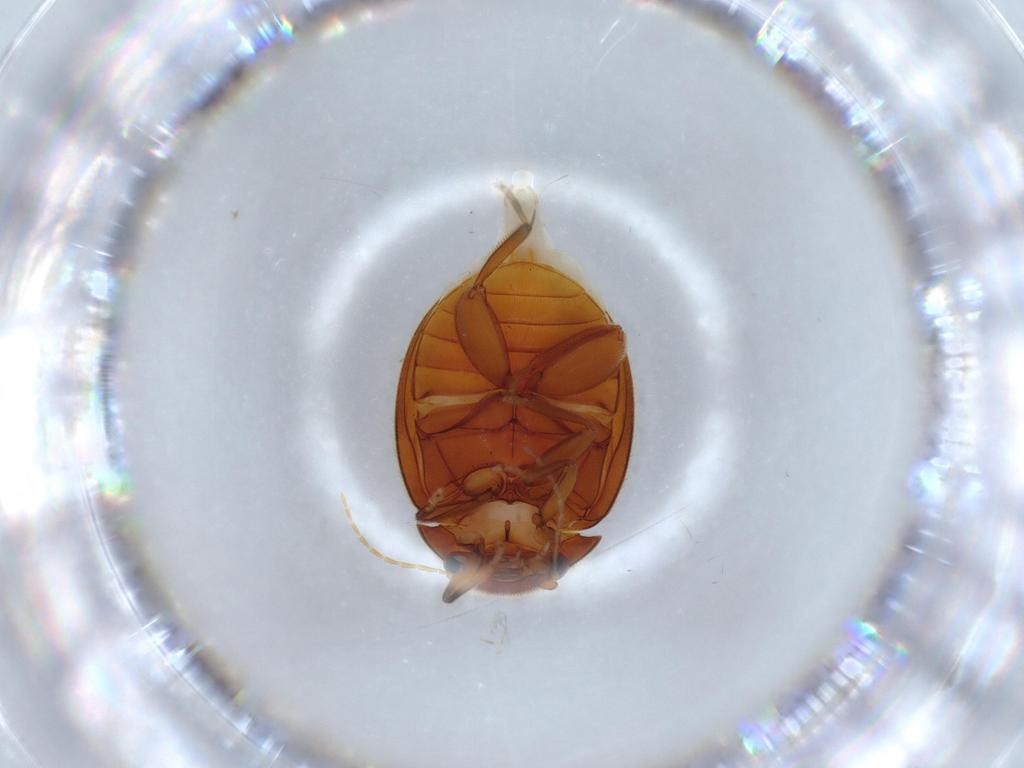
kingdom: Animalia
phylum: Arthropoda
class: Insecta
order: Coleoptera
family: Scirtidae
